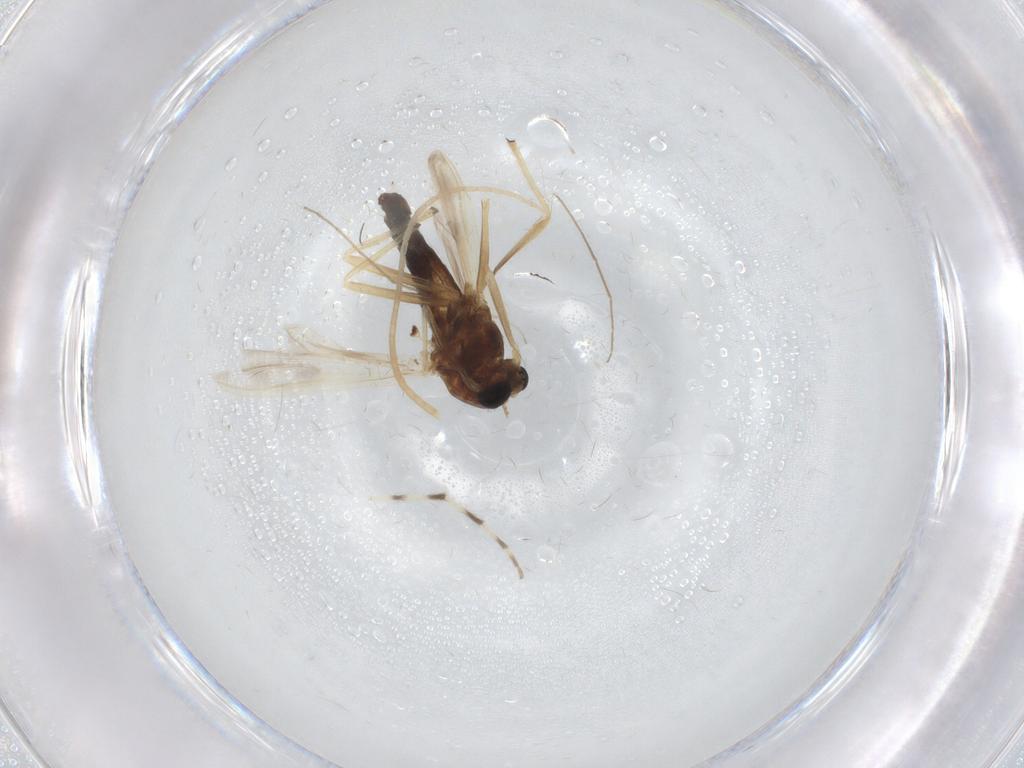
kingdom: Animalia
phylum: Arthropoda
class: Insecta
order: Diptera
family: Chironomidae
